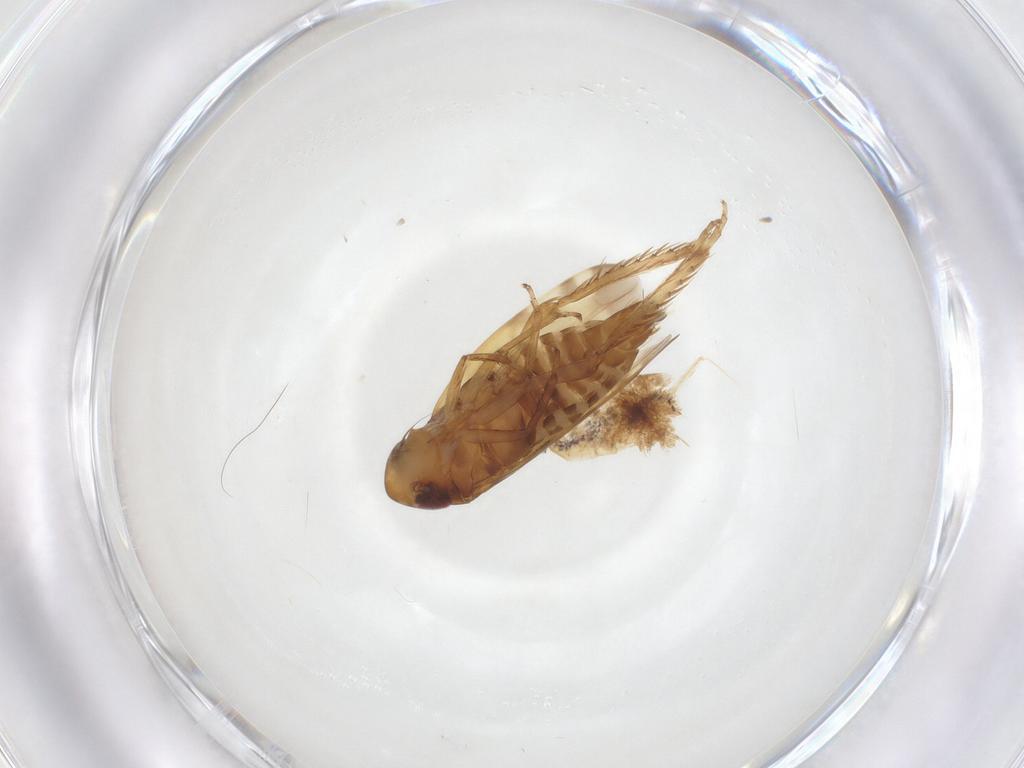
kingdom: Animalia
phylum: Arthropoda
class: Insecta
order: Hemiptera
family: Cicadellidae
